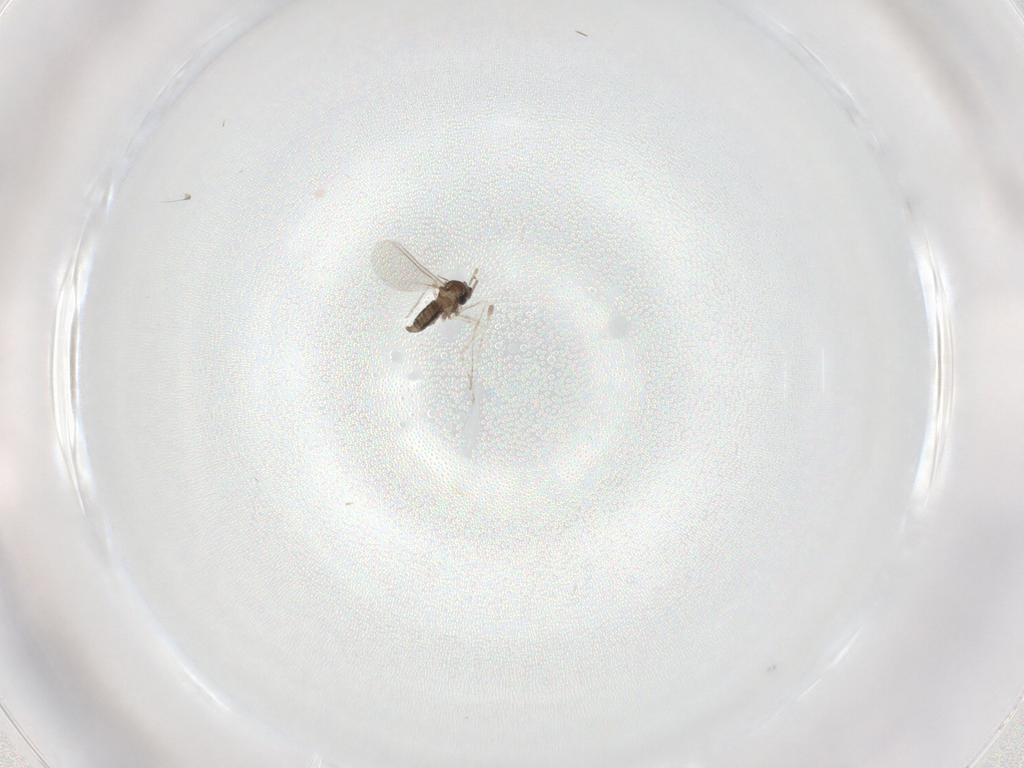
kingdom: Animalia
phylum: Arthropoda
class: Insecta
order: Diptera
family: Cecidomyiidae
